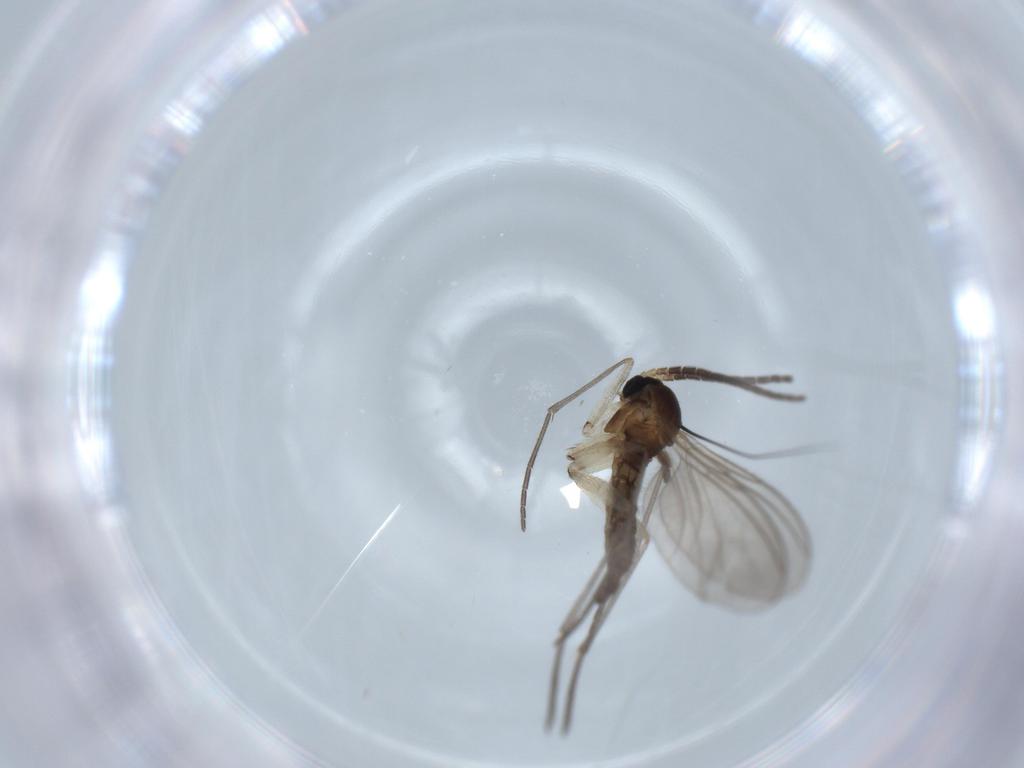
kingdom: Animalia
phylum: Arthropoda
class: Insecta
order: Diptera
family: Sciaridae
